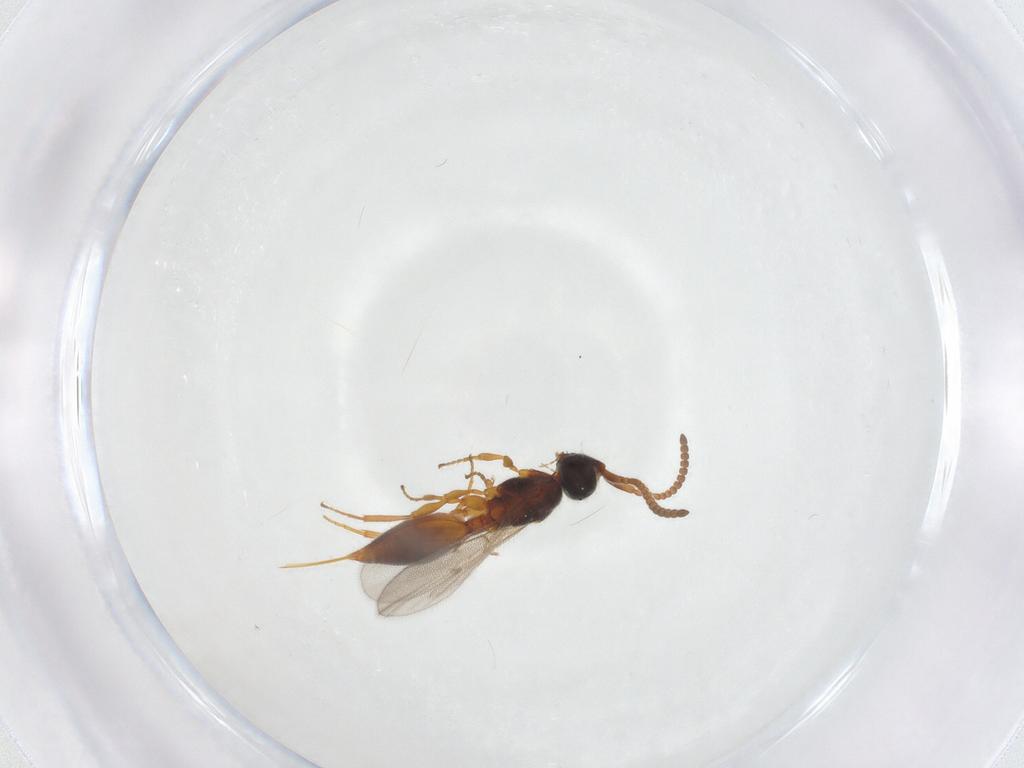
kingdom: Animalia
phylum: Arthropoda
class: Insecta
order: Hymenoptera
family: Diapriidae
